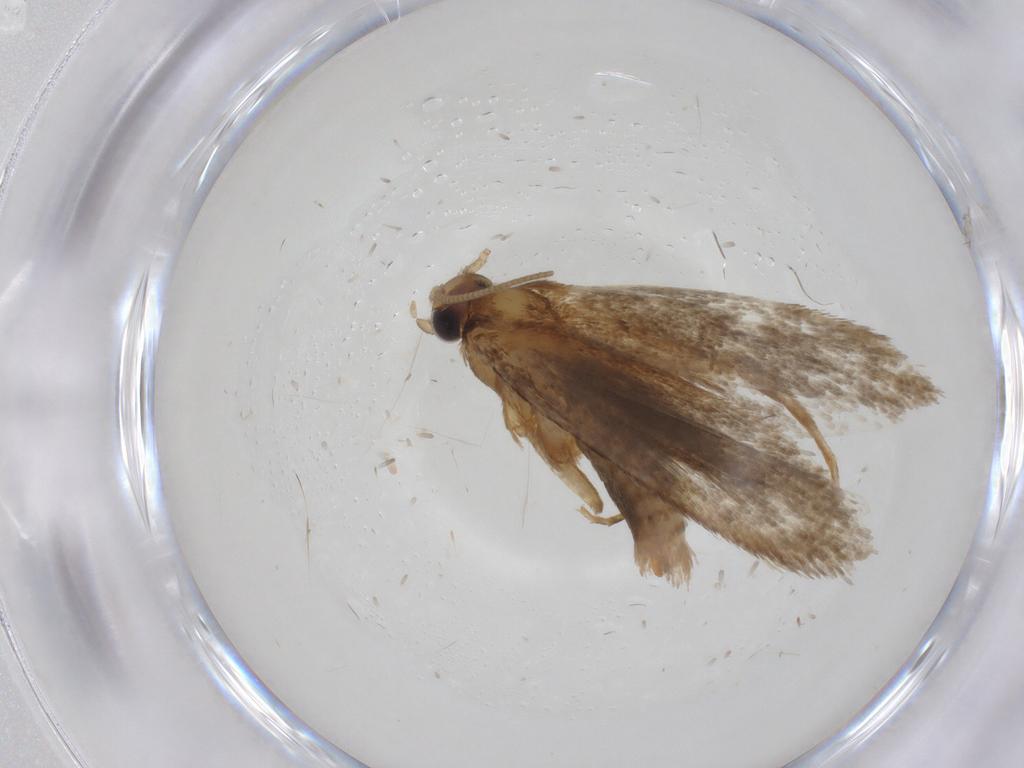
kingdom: Animalia
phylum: Arthropoda
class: Insecta
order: Lepidoptera
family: Tineidae
